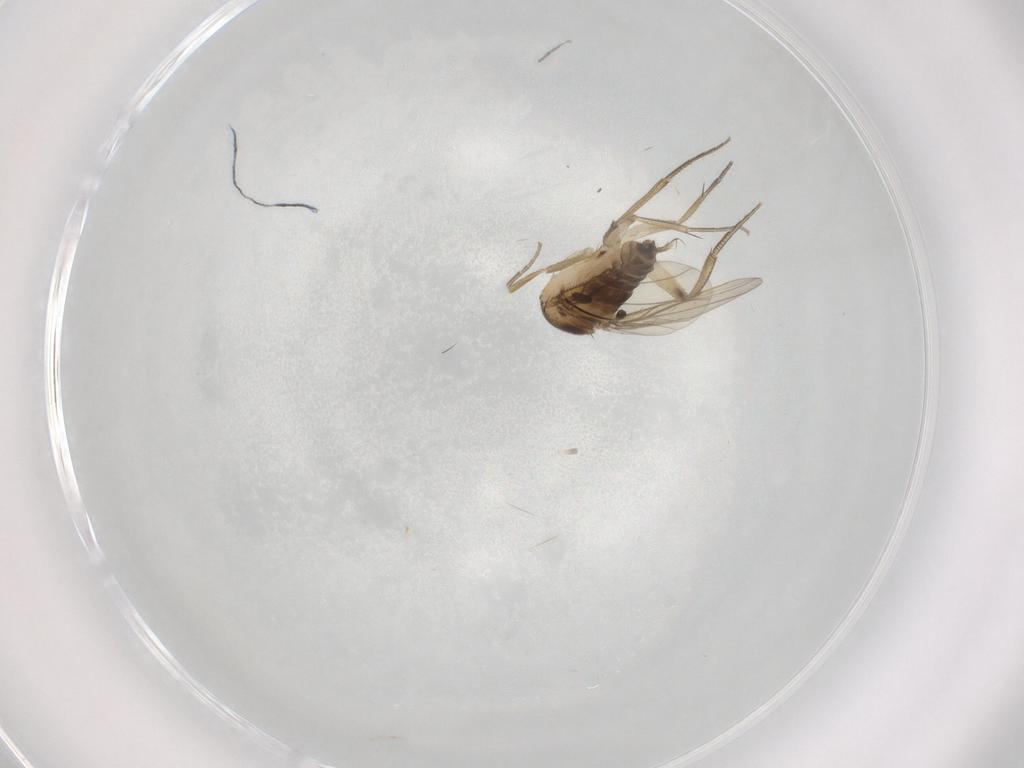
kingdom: Animalia
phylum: Arthropoda
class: Insecta
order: Diptera
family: Phoridae
